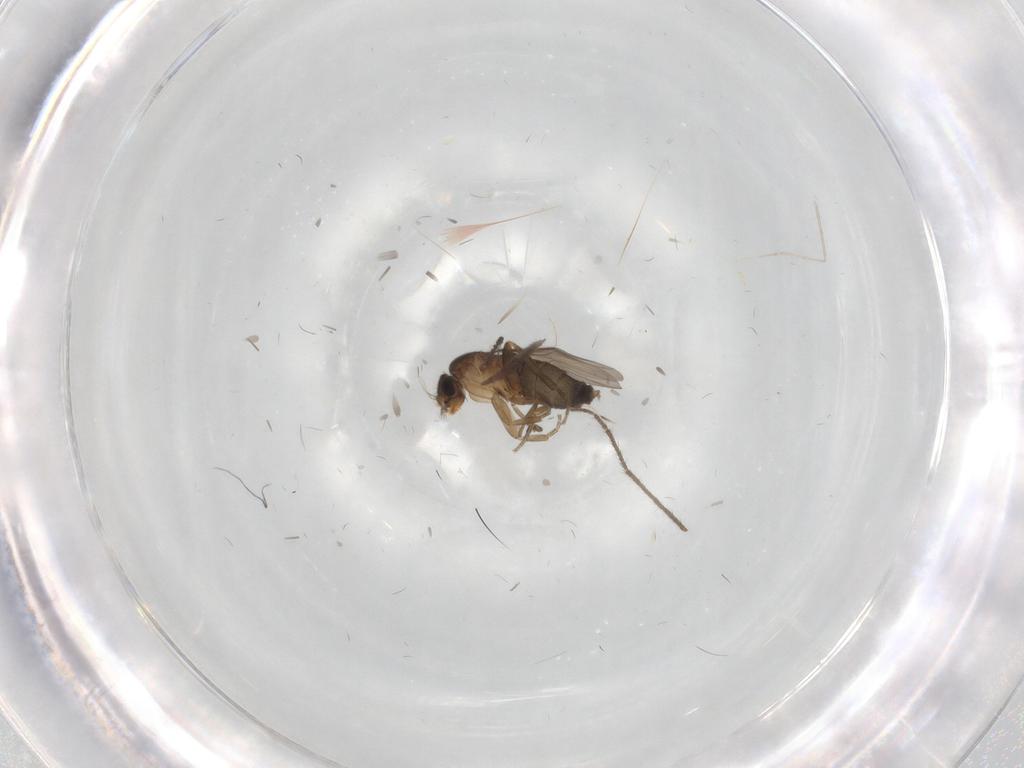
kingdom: Animalia
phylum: Arthropoda
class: Insecta
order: Diptera
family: Phoridae
